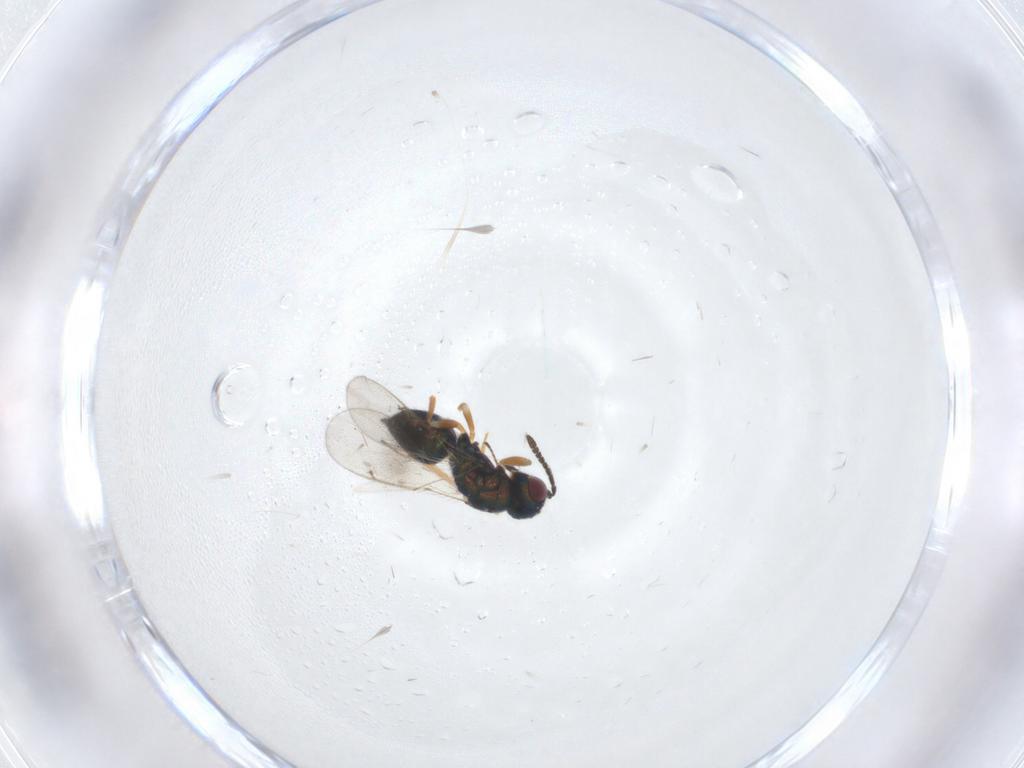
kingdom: Animalia
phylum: Arthropoda
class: Insecta
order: Hymenoptera
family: Tetracampidae
